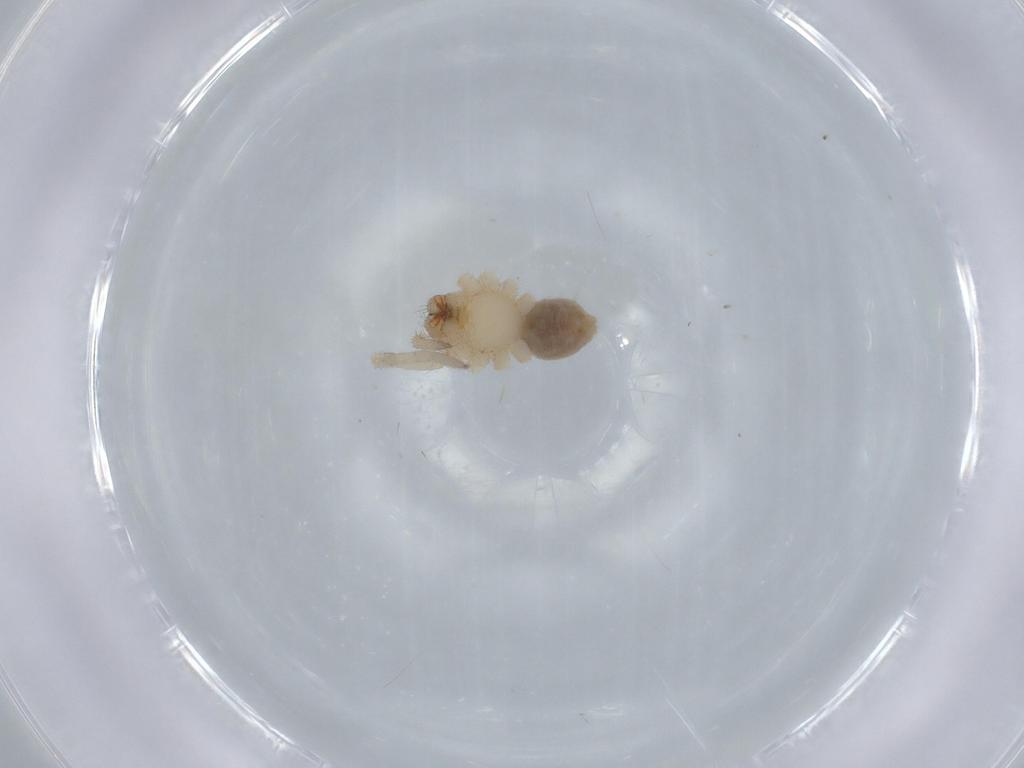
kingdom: Animalia
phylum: Arthropoda
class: Arachnida
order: Araneae
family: Corinnidae
